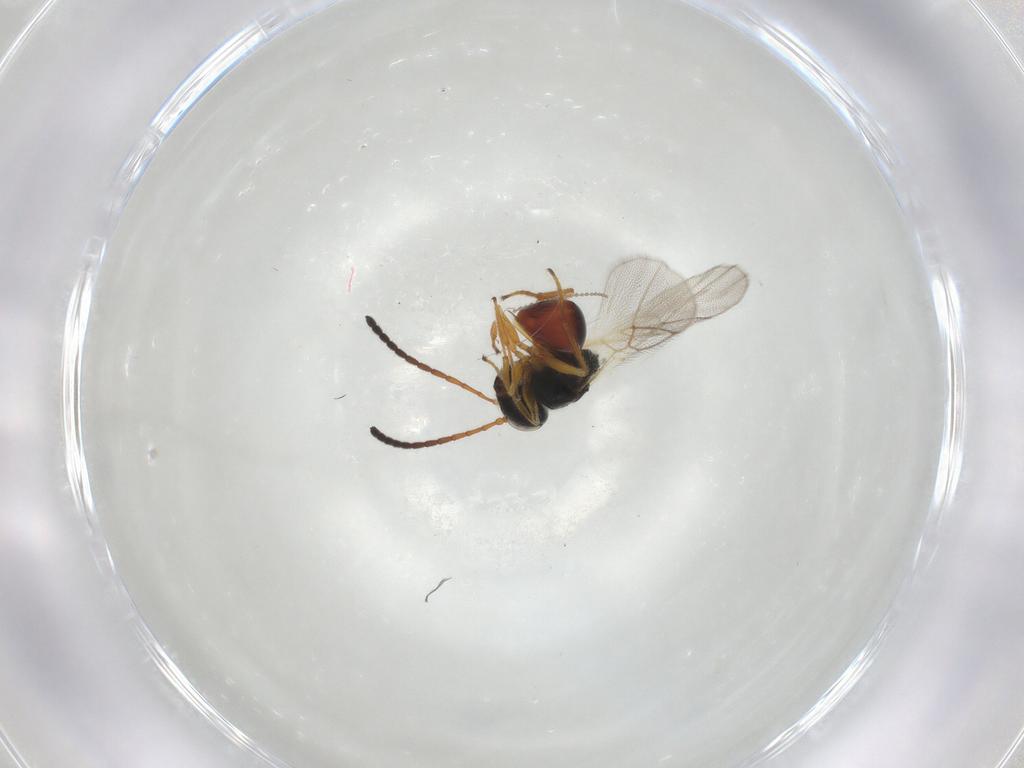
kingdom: Animalia
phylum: Arthropoda
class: Insecta
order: Hymenoptera
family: Figitidae
